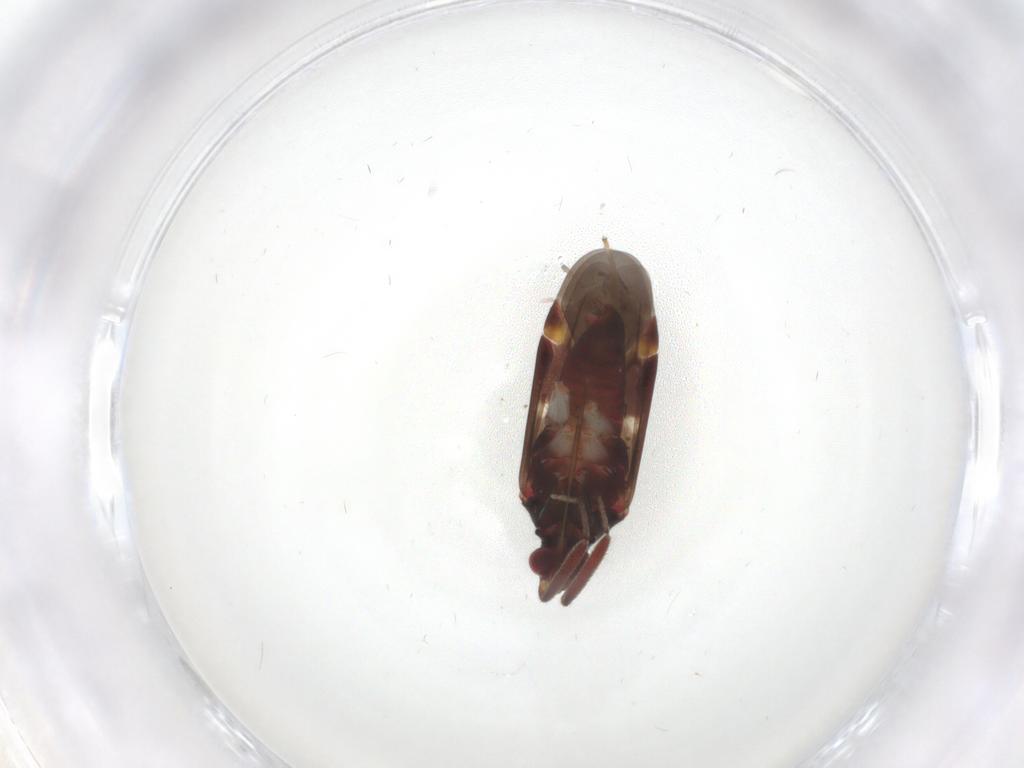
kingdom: Animalia
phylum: Arthropoda
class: Insecta
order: Hemiptera
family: Miridae
